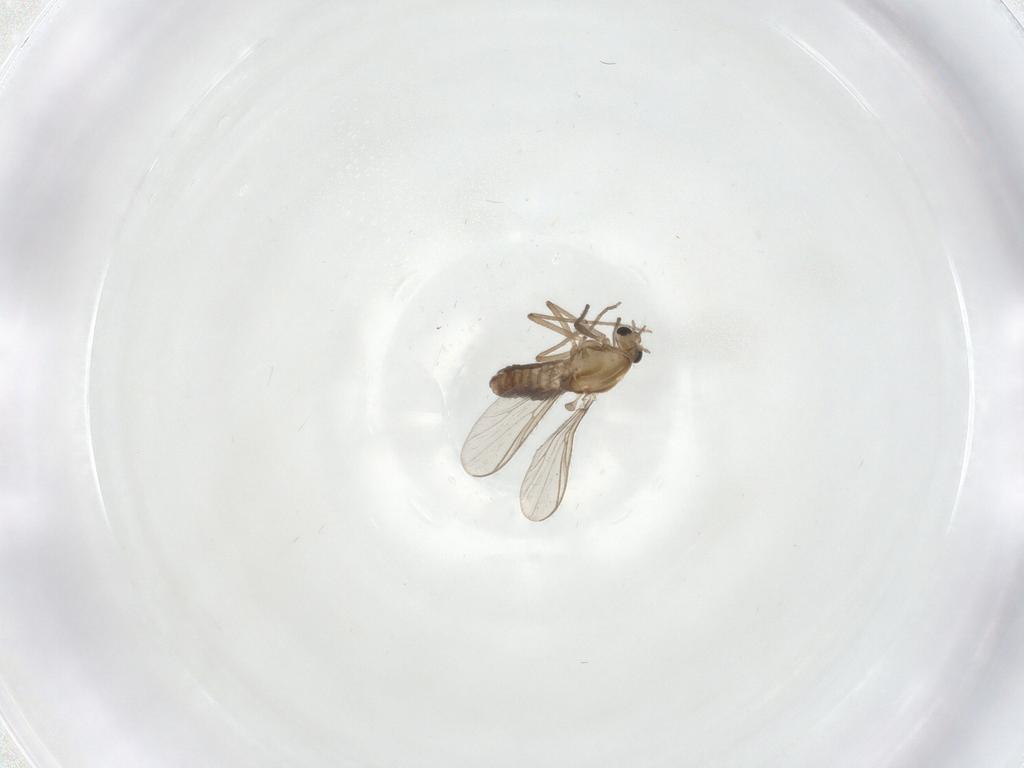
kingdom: Animalia
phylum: Arthropoda
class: Insecta
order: Diptera
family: Cecidomyiidae
